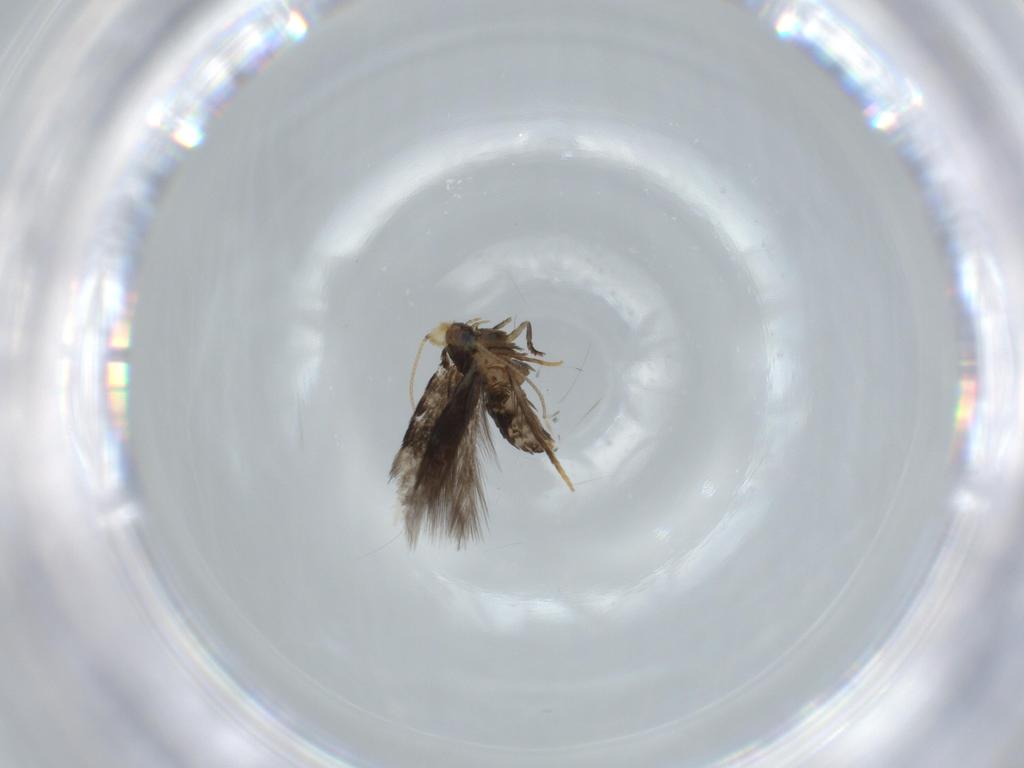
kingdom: Animalia
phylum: Arthropoda
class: Insecta
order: Lepidoptera
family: Nepticulidae
